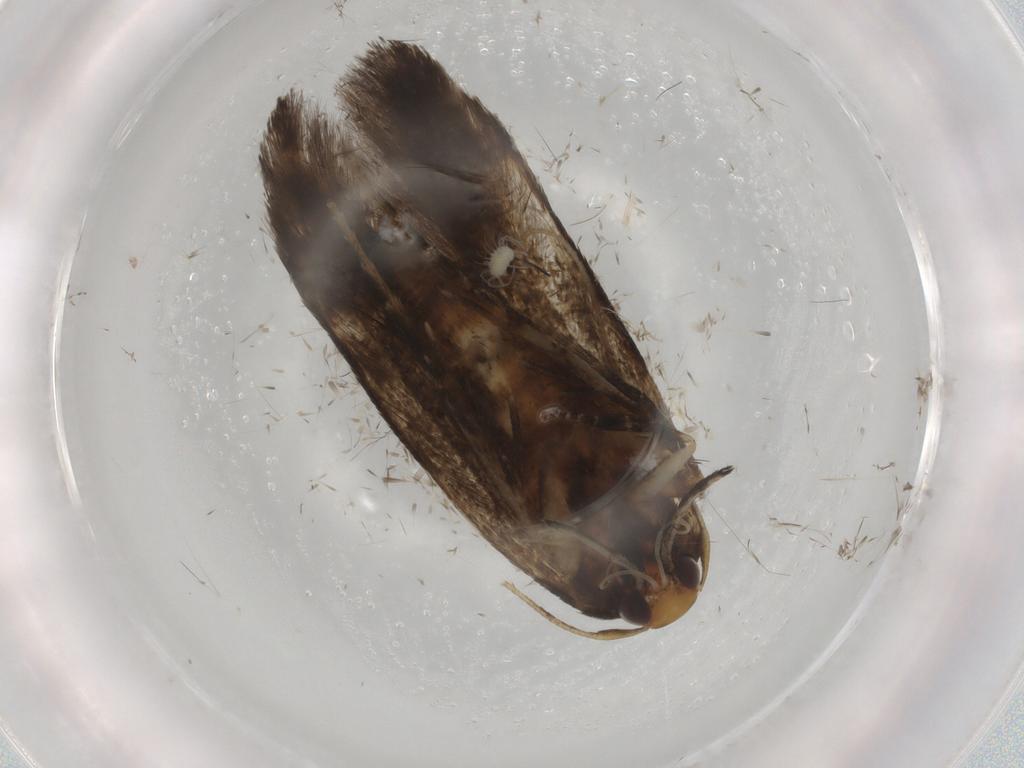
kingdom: Animalia
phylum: Arthropoda
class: Insecta
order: Lepidoptera
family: Cosmopterigidae
